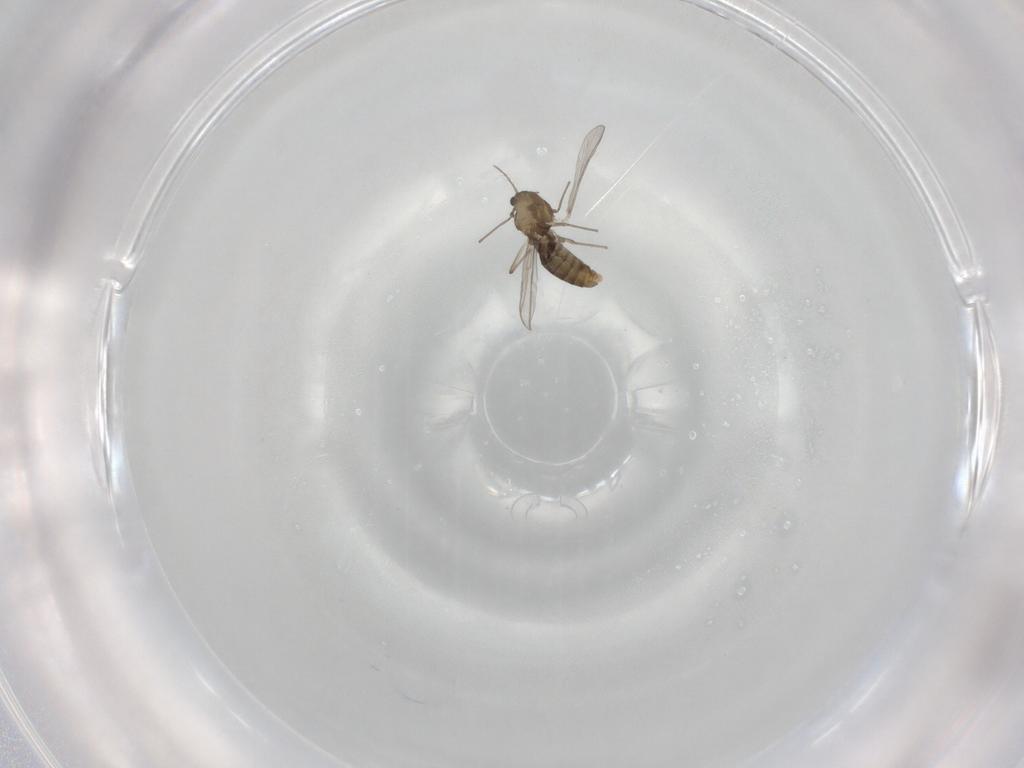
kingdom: Animalia
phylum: Arthropoda
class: Insecta
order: Diptera
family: Chironomidae
